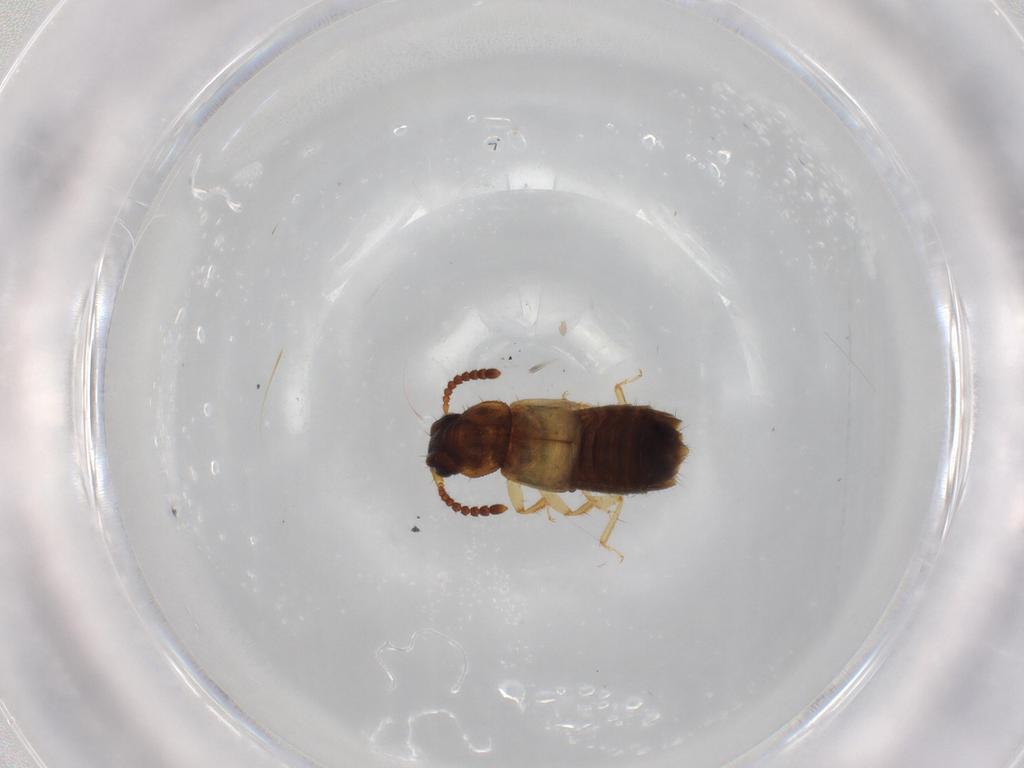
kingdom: Animalia
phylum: Arthropoda
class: Insecta
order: Coleoptera
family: Staphylinidae
